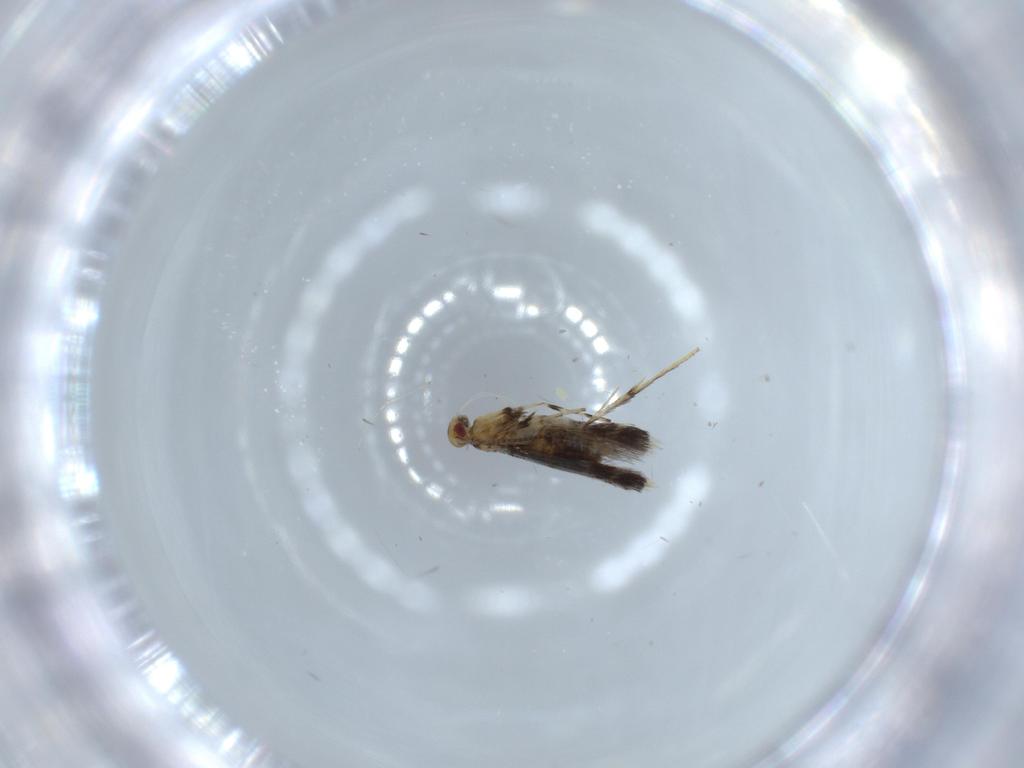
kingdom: Animalia
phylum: Arthropoda
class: Insecta
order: Lepidoptera
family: Gracillariidae
